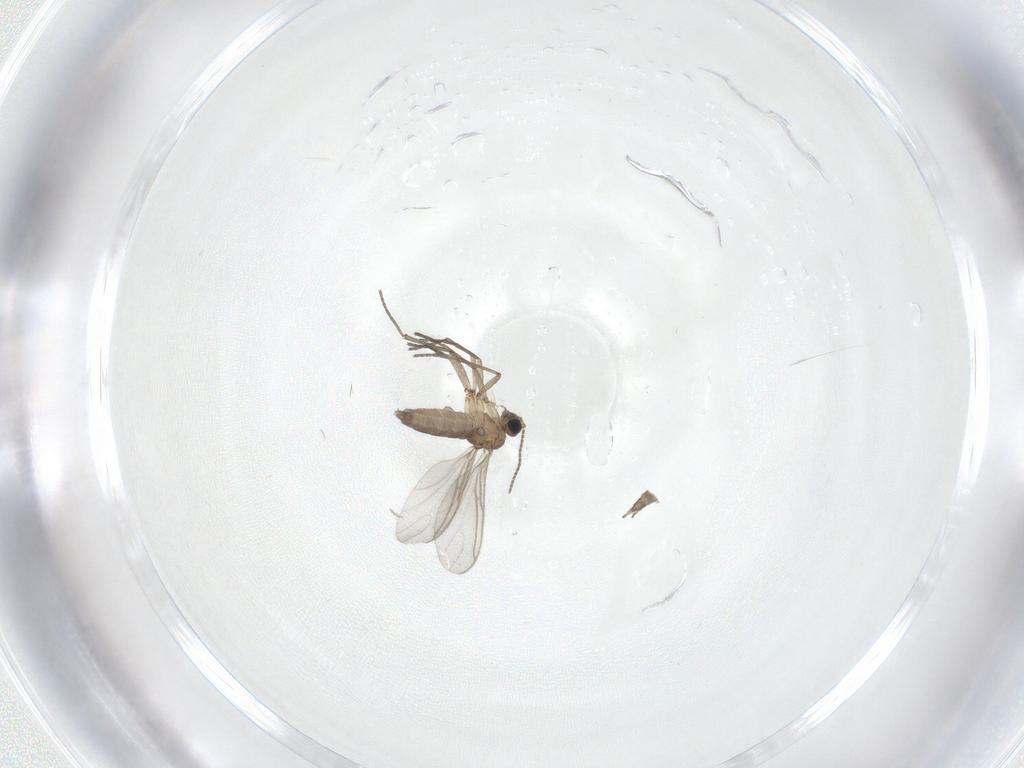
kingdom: Animalia
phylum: Arthropoda
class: Insecta
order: Diptera
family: Sciaridae
